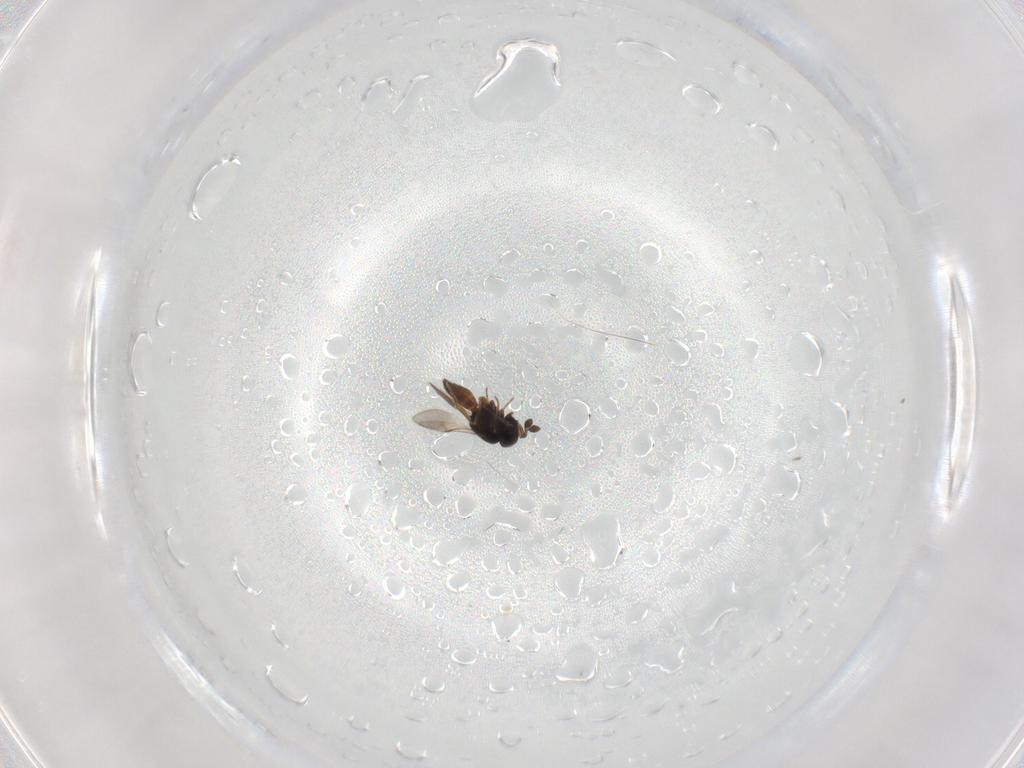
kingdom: Animalia
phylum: Arthropoda
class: Insecta
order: Hymenoptera
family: Scelionidae
